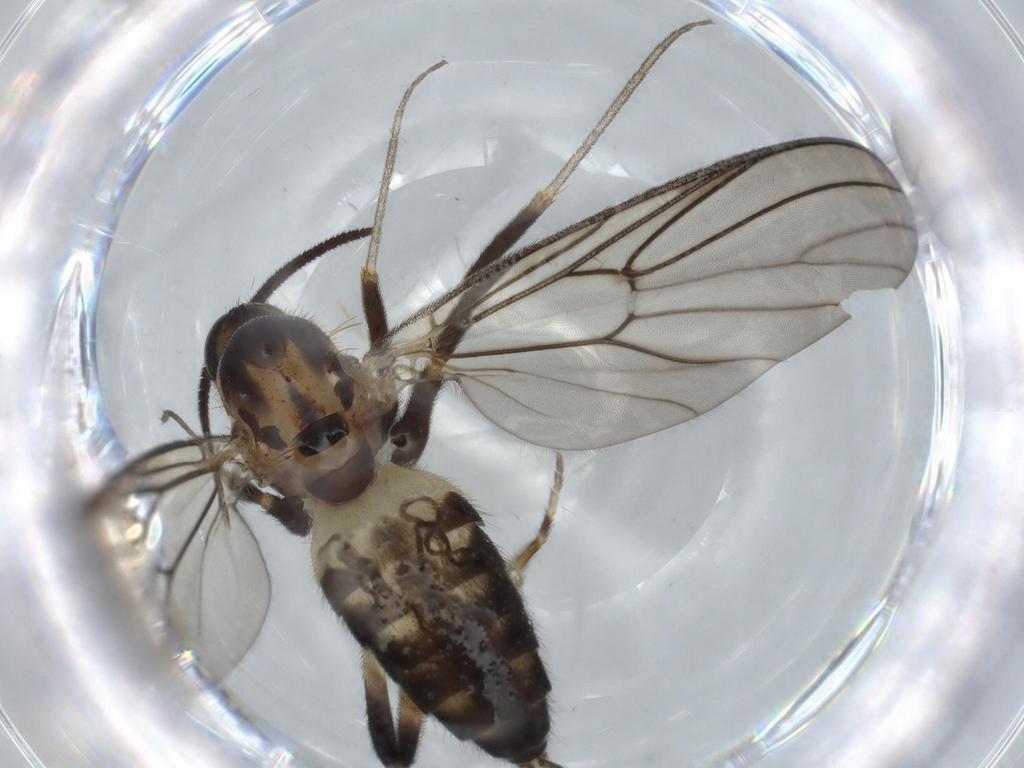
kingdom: Animalia
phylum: Arthropoda
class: Insecta
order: Diptera
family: Sciaridae
